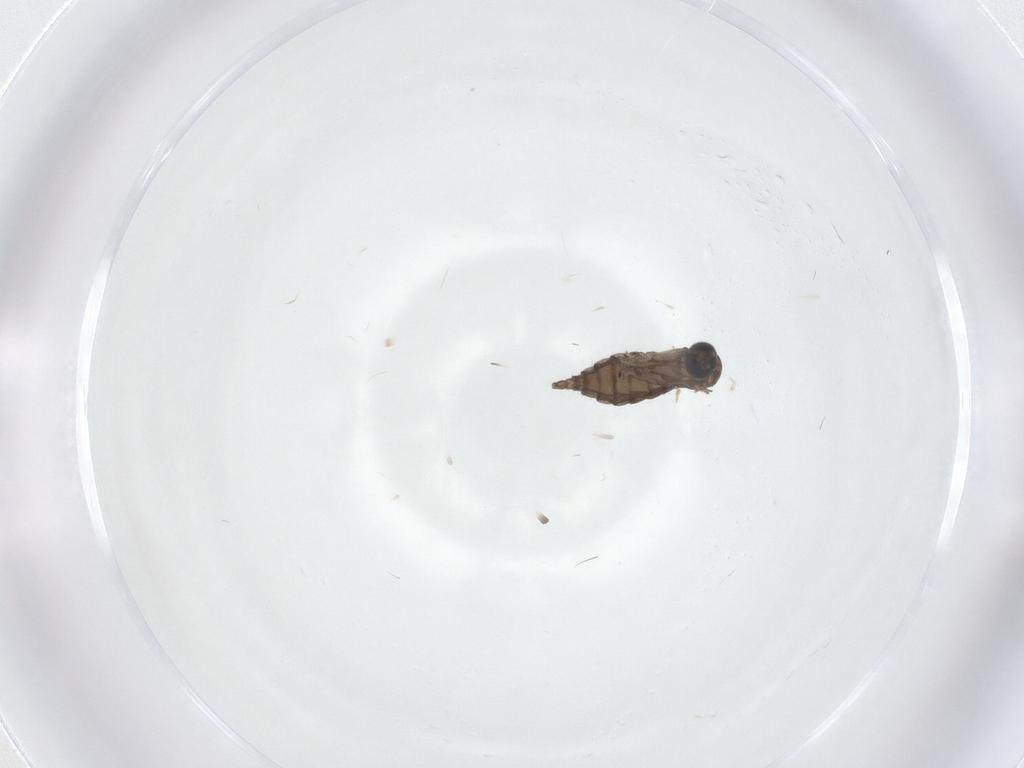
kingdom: Animalia
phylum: Arthropoda
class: Insecta
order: Diptera
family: Sciaridae
